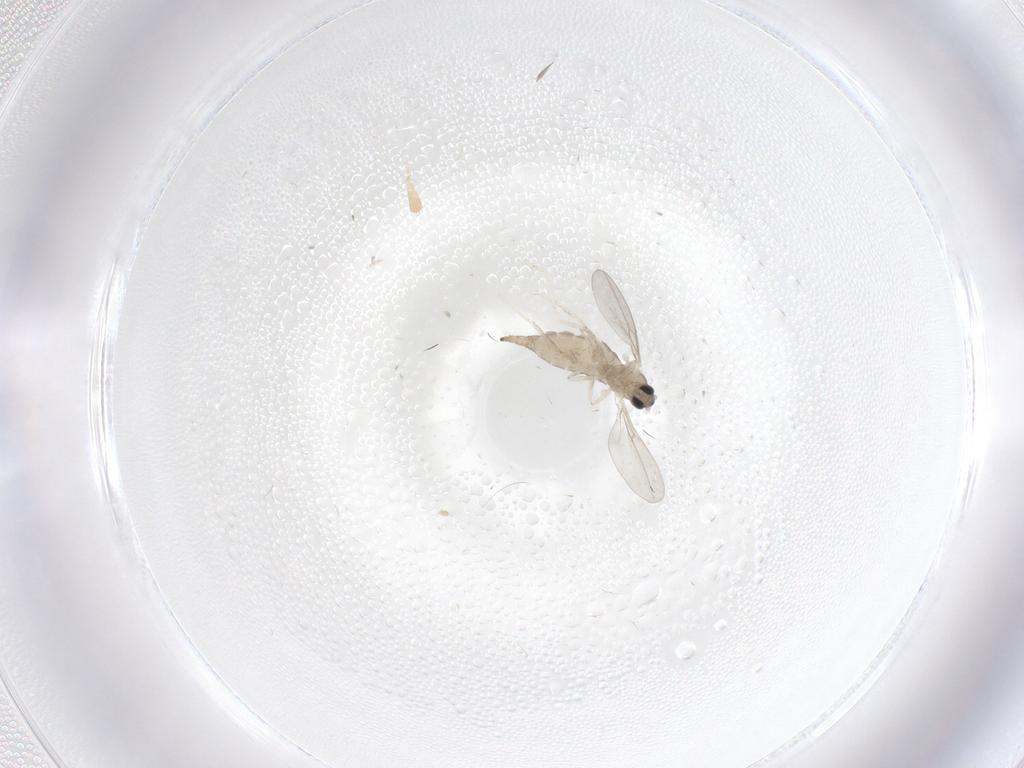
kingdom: Animalia
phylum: Arthropoda
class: Insecta
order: Diptera
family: Cecidomyiidae
